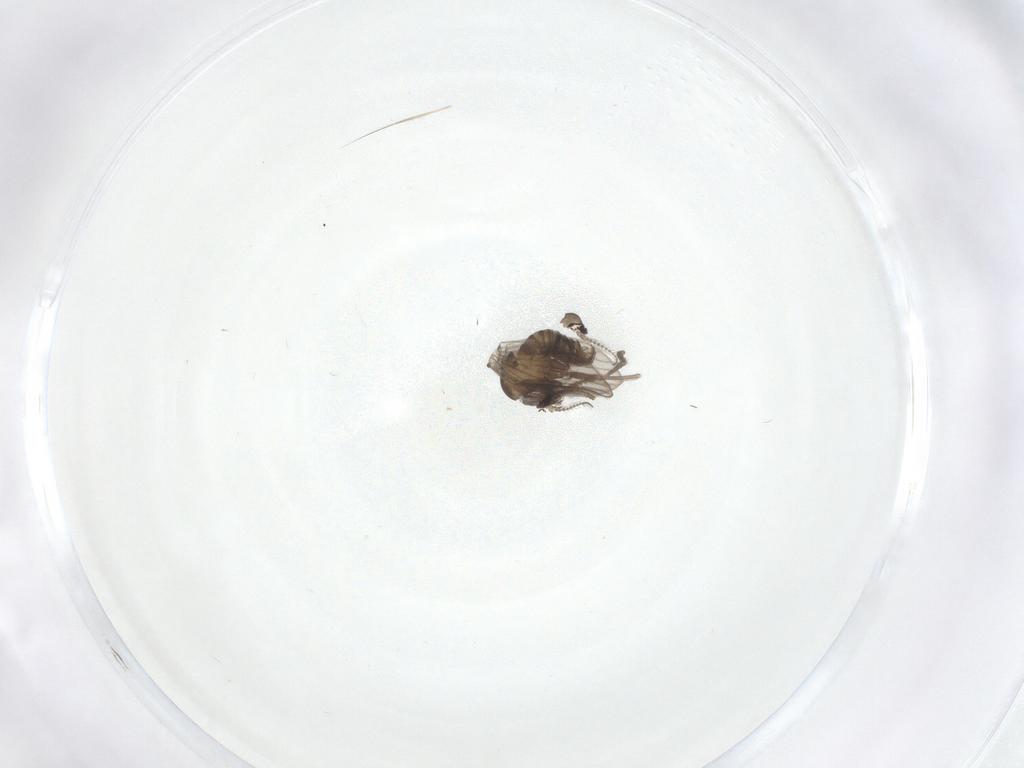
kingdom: Animalia
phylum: Arthropoda
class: Insecta
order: Diptera
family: Psychodidae
